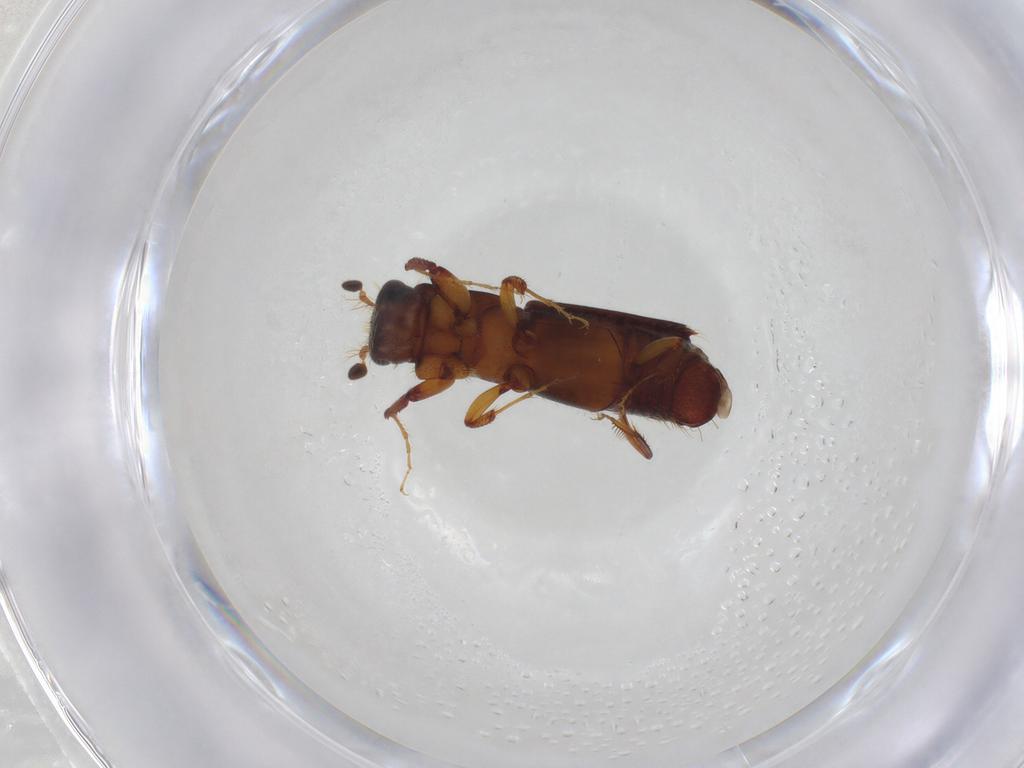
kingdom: Animalia
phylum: Arthropoda
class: Insecta
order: Coleoptera
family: Curculionidae
